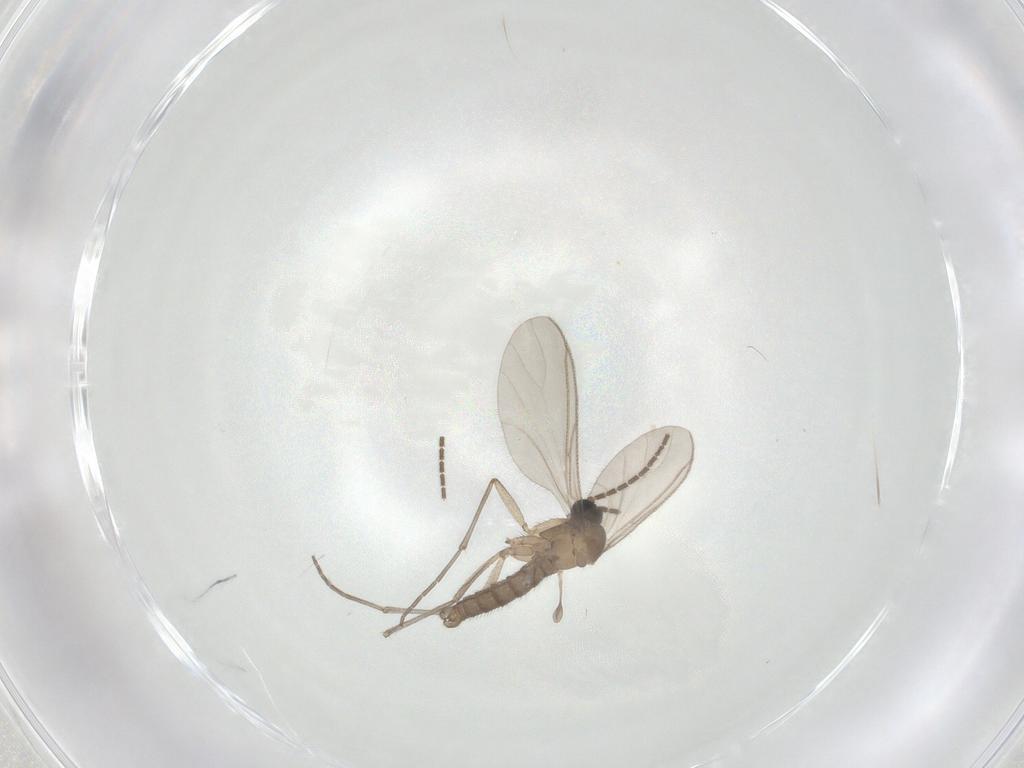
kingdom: Animalia
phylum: Arthropoda
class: Insecta
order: Diptera
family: Sciaridae
